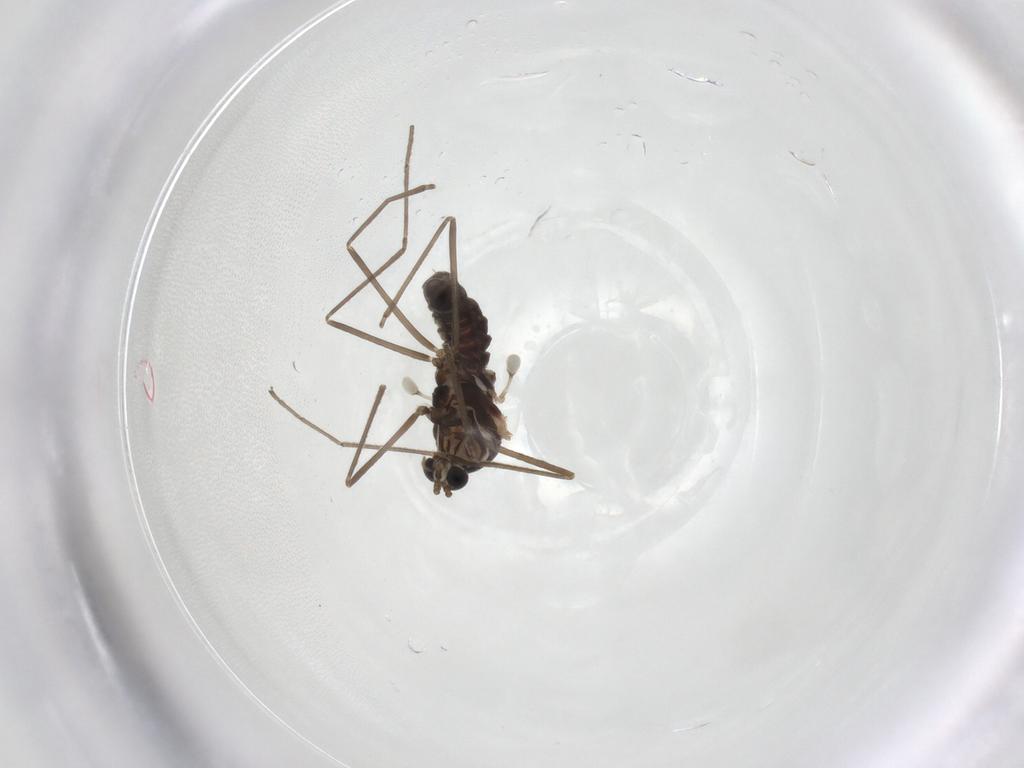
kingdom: Animalia
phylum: Arthropoda
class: Insecta
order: Diptera
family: Cecidomyiidae
